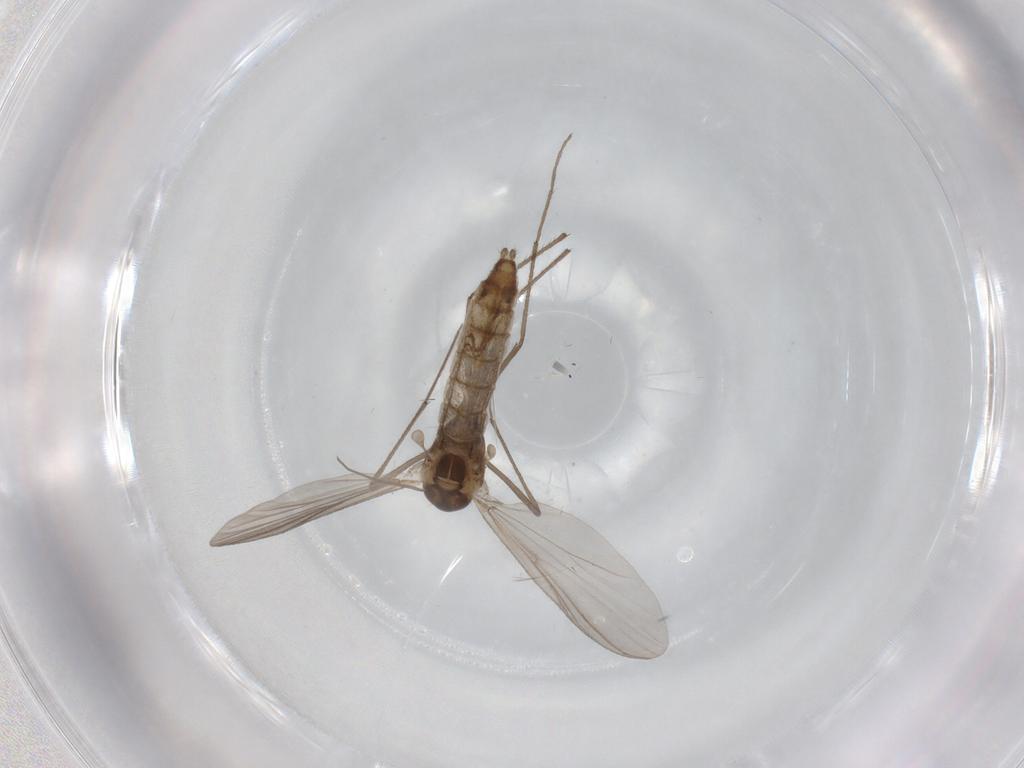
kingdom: Animalia
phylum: Arthropoda
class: Insecta
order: Diptera
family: Chironomidae
